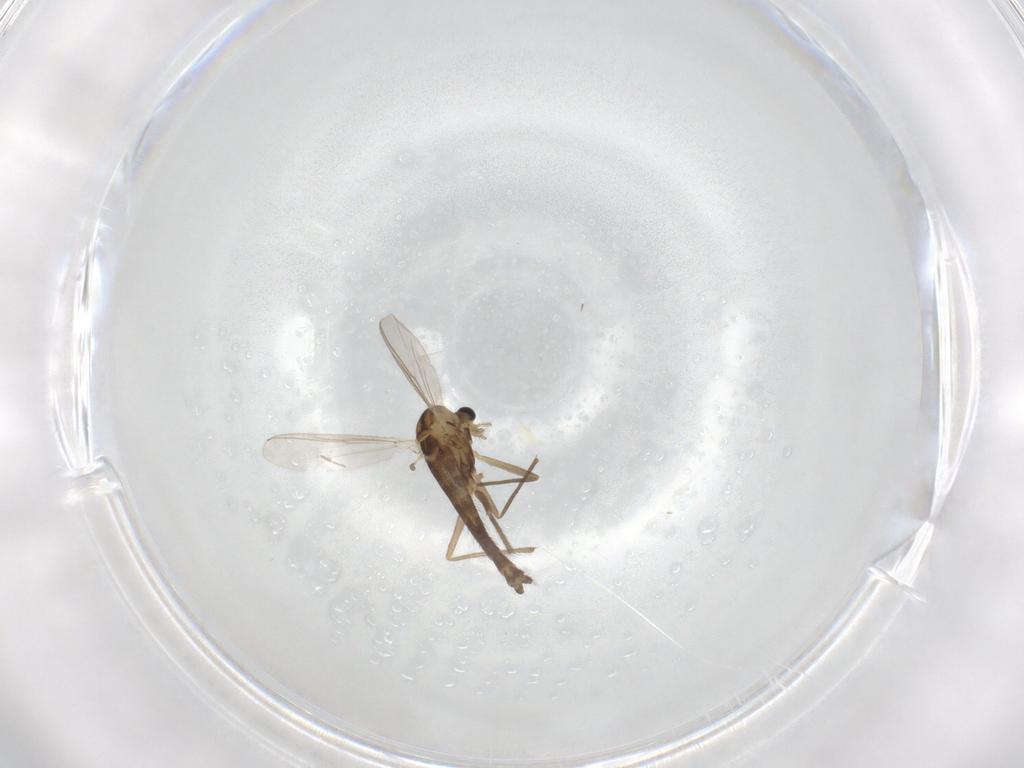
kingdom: Animalia
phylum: Arthropoda
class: Insecta
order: Diptera
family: Chironomidae
